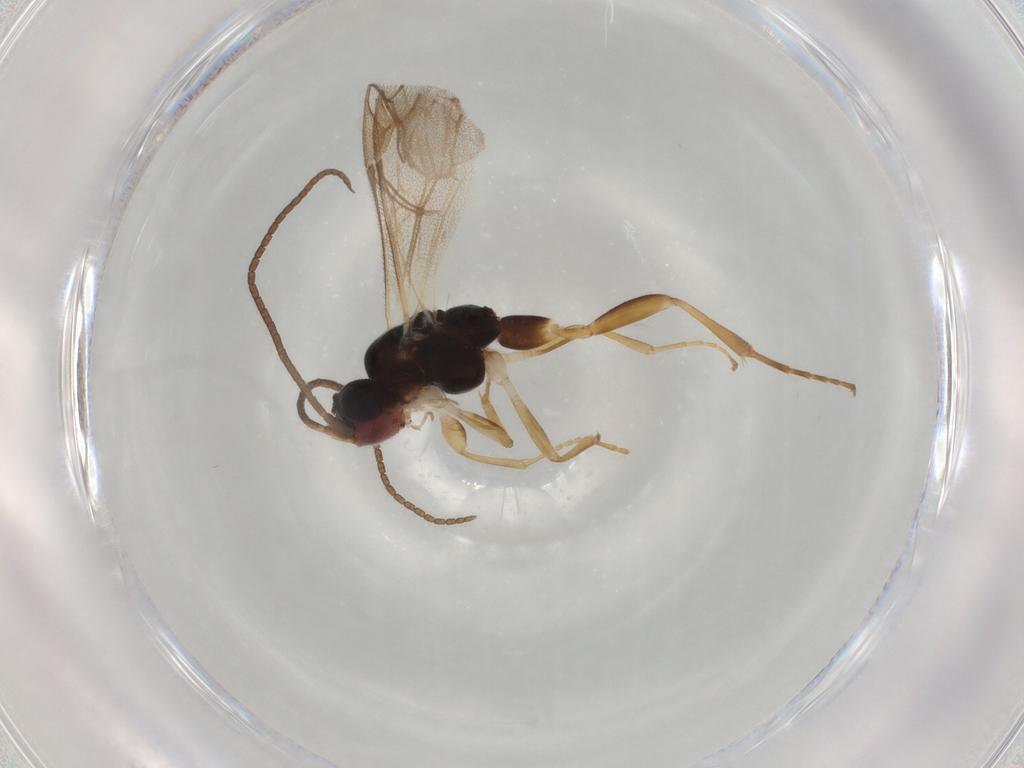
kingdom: Animalia
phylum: Arthropoda
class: Insecta
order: Hymenoptera
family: Ichneumonidae
